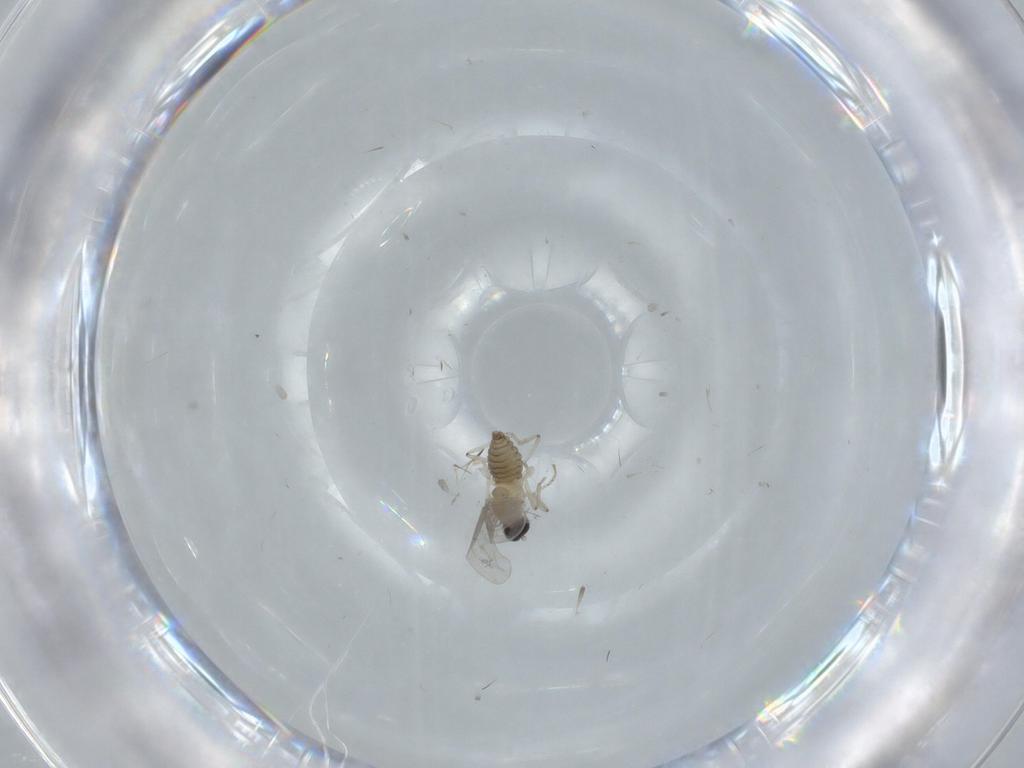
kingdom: Animalia
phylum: Arthropoda
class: Insecta
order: Diptera
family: Cecidomyiidae
